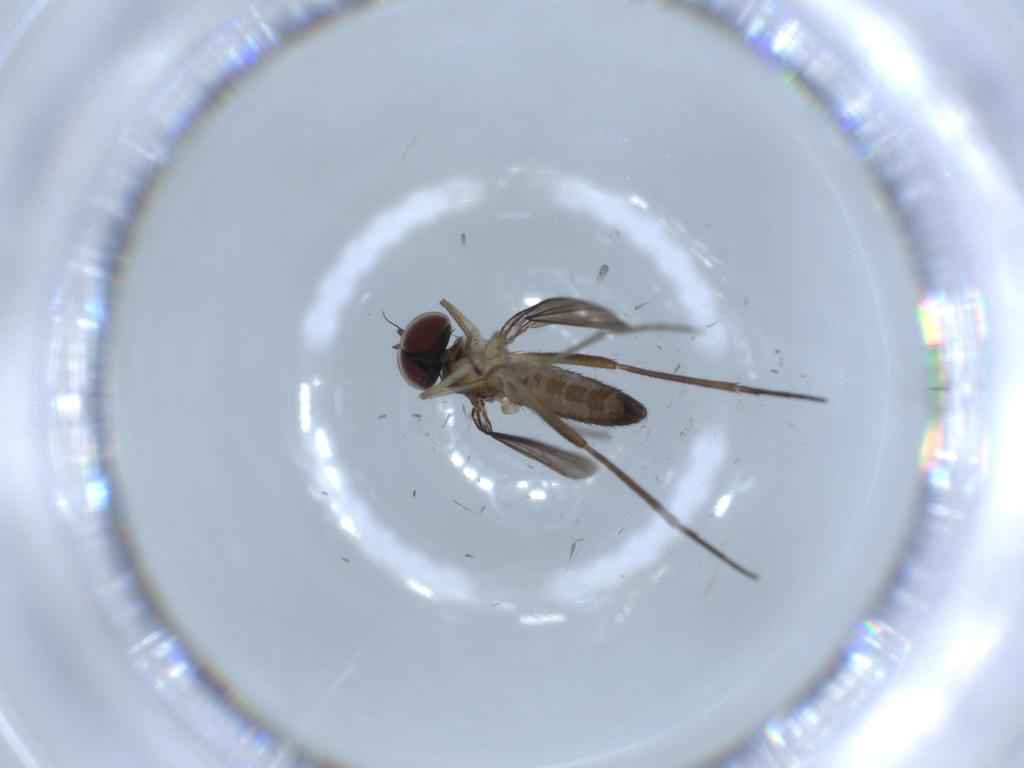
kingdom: Animalia
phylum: Arthropoda
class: Insecta
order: Diptera
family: Dolichopodidae
